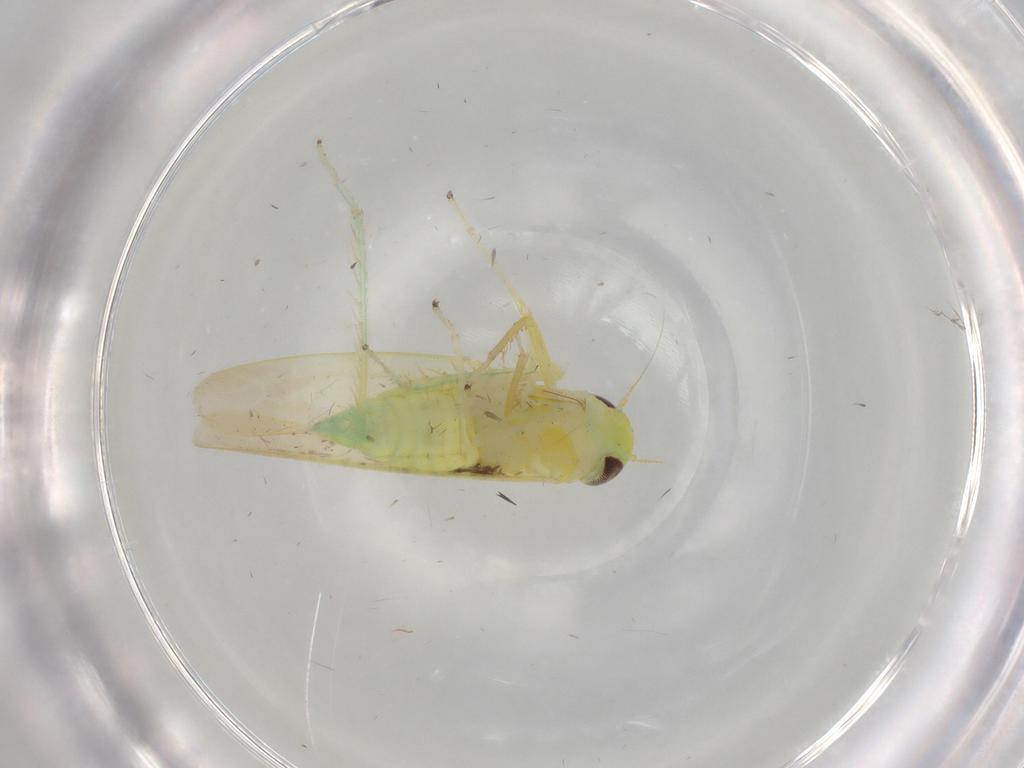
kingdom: Animalia
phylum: Arthropoda
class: Insecta
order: Hemiptera
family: Cicadellidae
